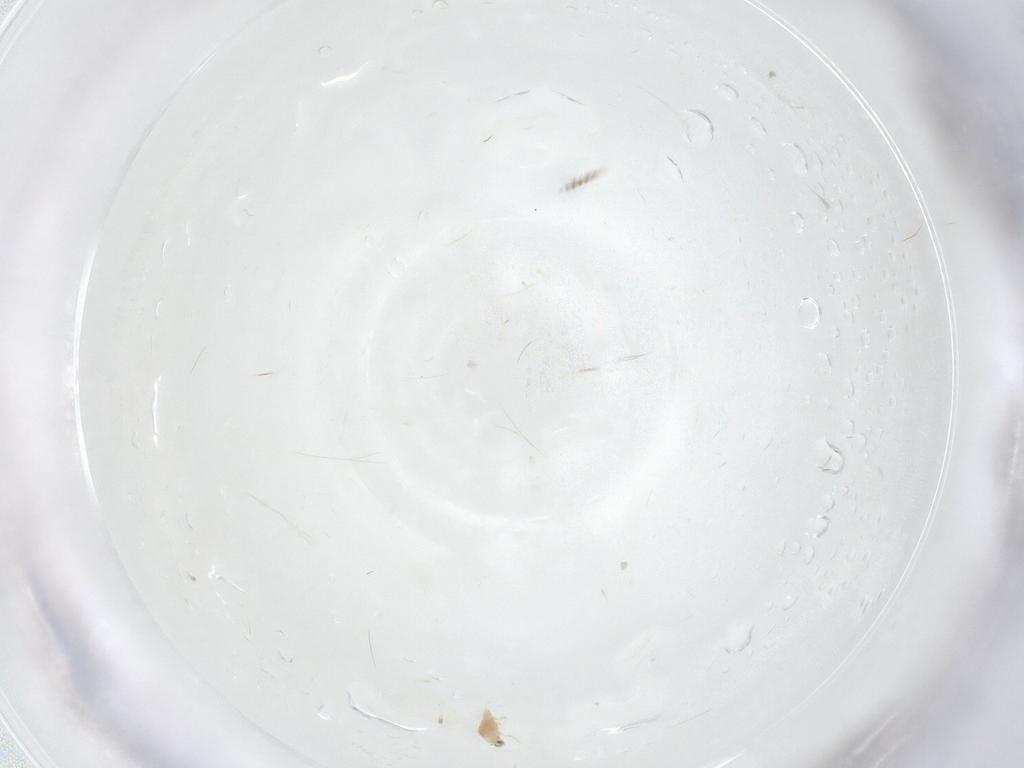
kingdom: Animalia
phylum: Arthropoda
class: Insecta
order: Hemiptera
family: Diaspididae
